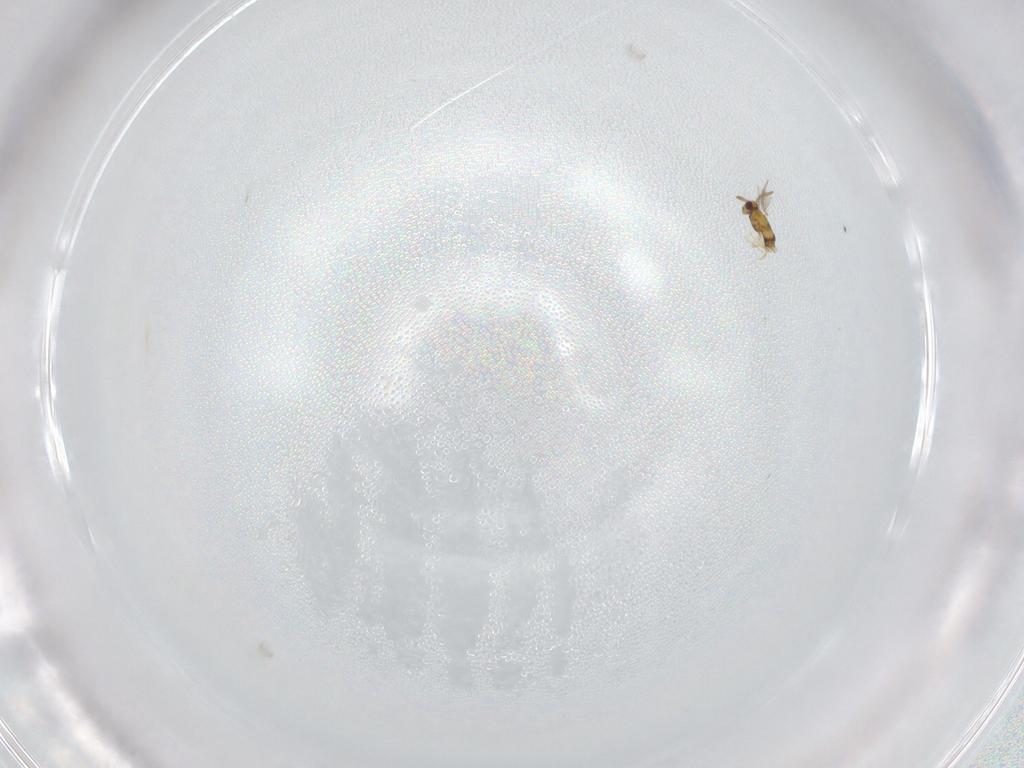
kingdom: Animalia
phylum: Arthropoda
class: Insecta
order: Hymenoptera
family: Aphelinidae
